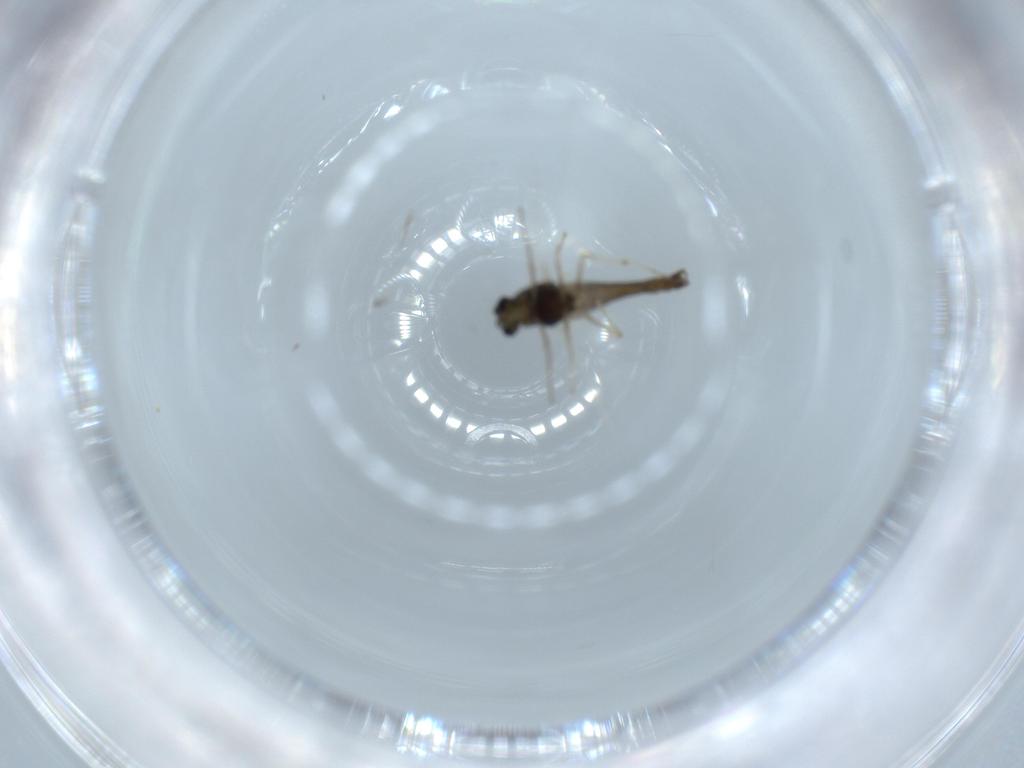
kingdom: Animalia
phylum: Arthropoda
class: Insecta
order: Diptera
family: Chironomidae
